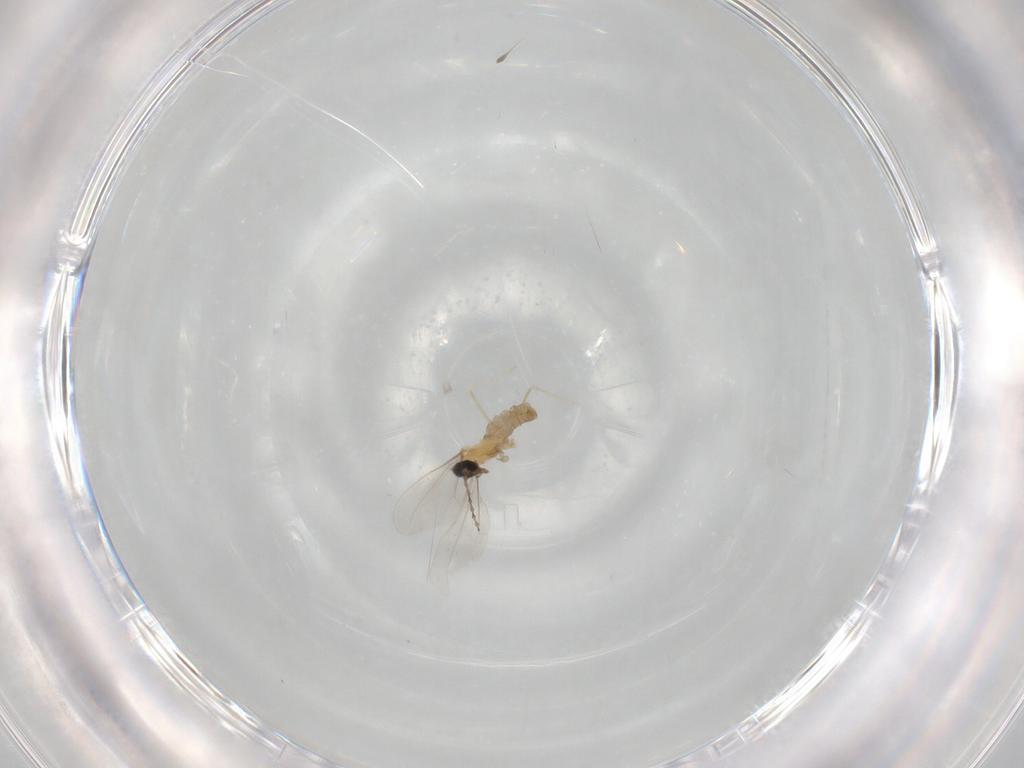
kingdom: Animalia
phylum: Arthropoda
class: Insecta
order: Diptera
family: Cecidomyiidae
